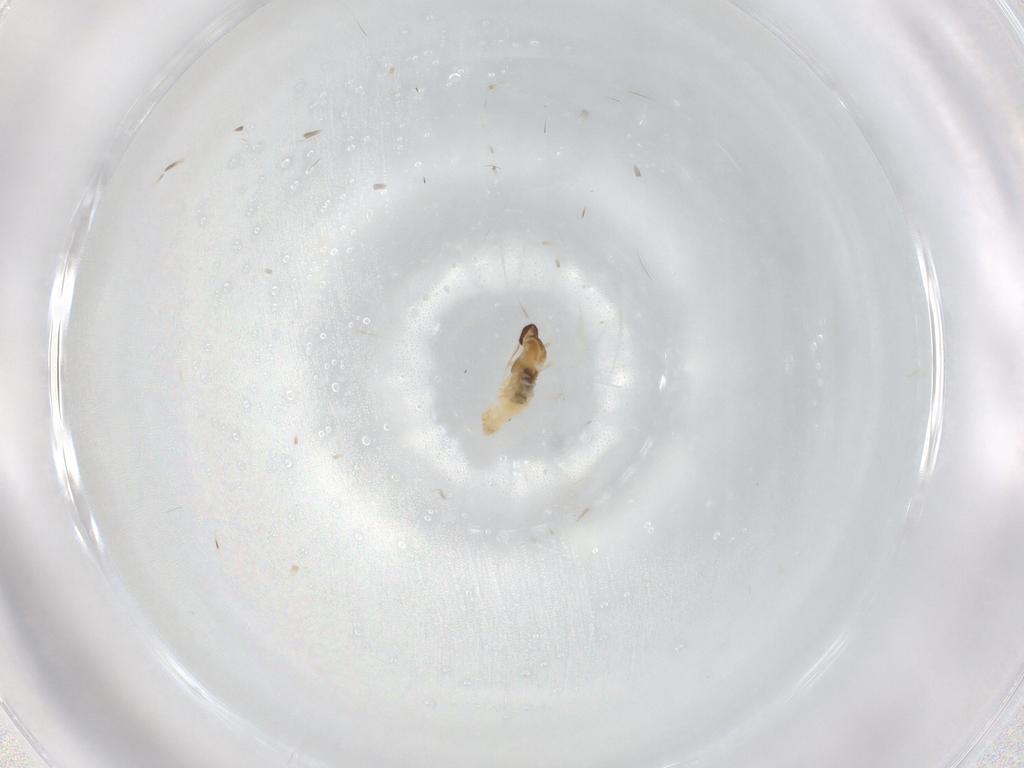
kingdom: Animalia
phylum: Arthropoda
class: Insecta
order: Diptera
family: Cecidomyiidae
